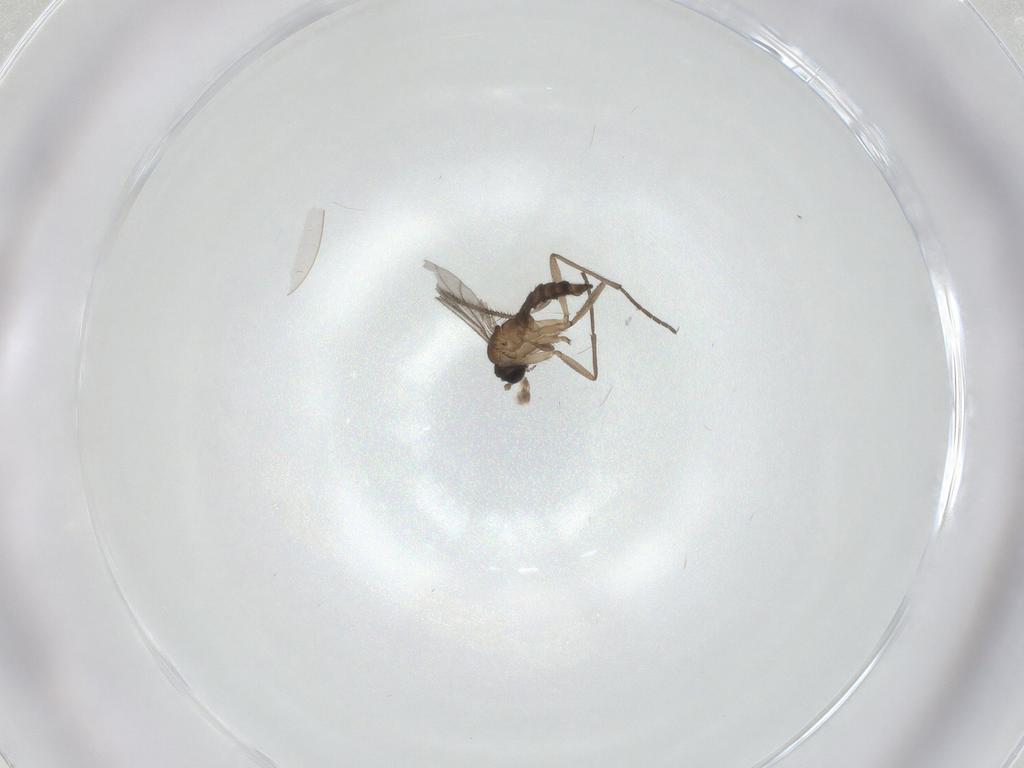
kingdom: Animalia
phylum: Arthropoda
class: Insecta
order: Diptera
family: Sciaridae
